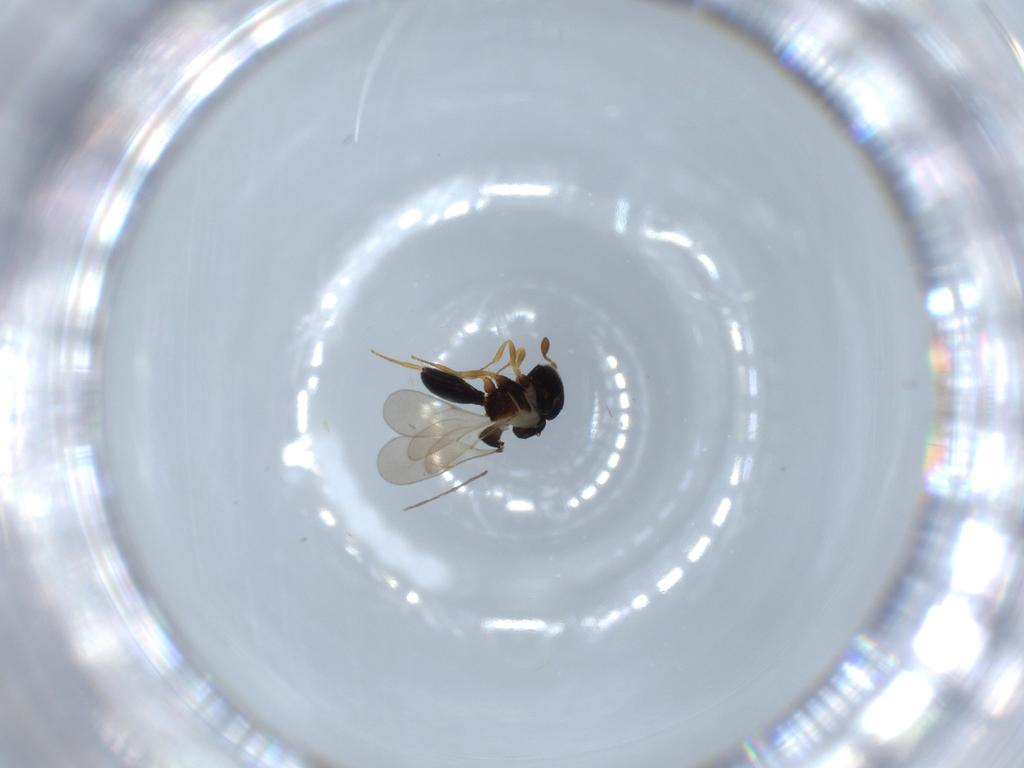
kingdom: Animalia
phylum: Arthropoda
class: Insecta
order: Hymenoptera
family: Scelionidae
